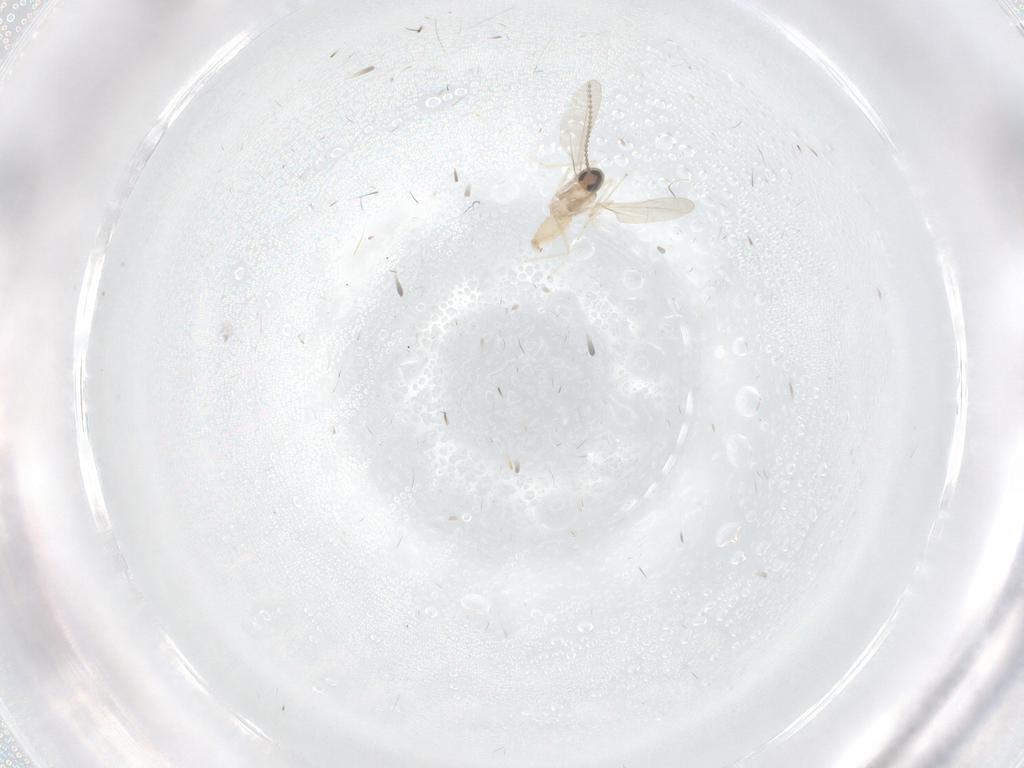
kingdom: Animalia
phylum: Arthropoda
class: Insecta
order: Diptera
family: Cecidomyiidae
